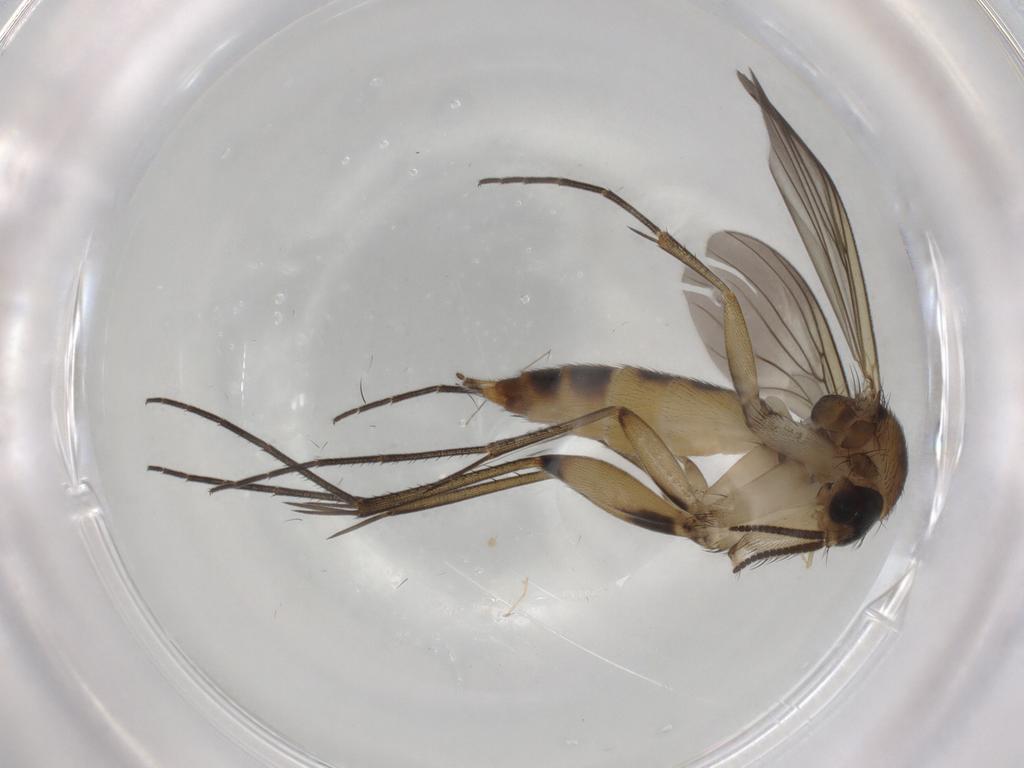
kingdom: Animalia
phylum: Arthropoda
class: Insecta
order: Diptera
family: Mycetophilidae
